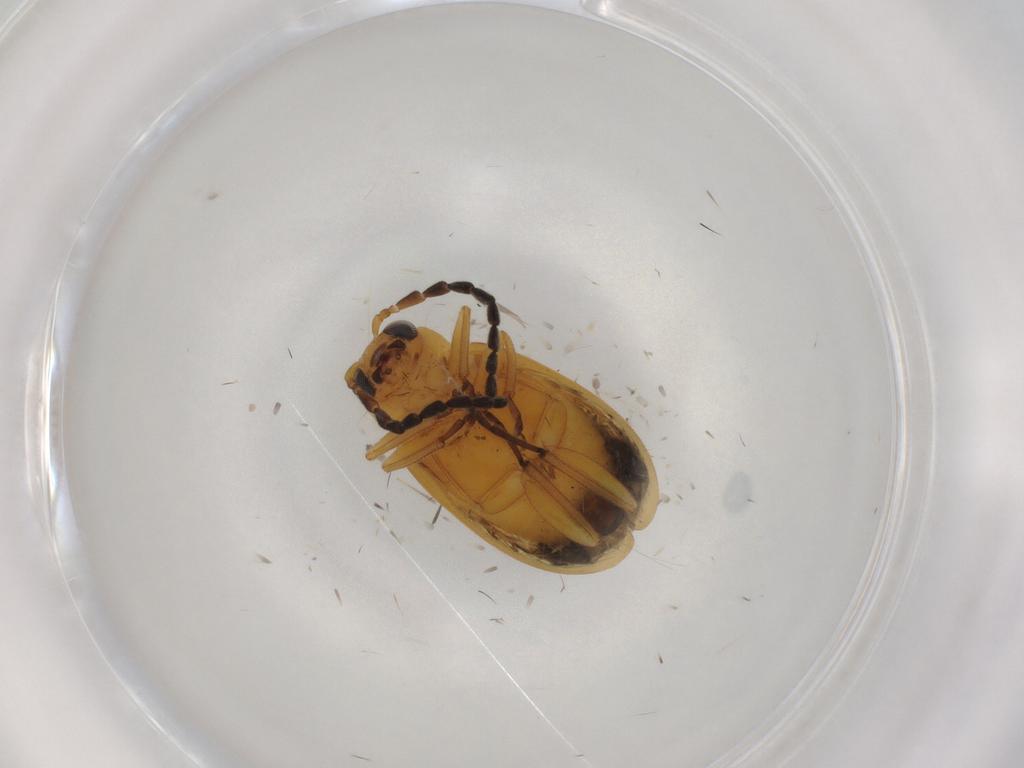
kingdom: Animalia
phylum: Arthropoda
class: Insecta
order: Coleoptera
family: Chrysomelidae
